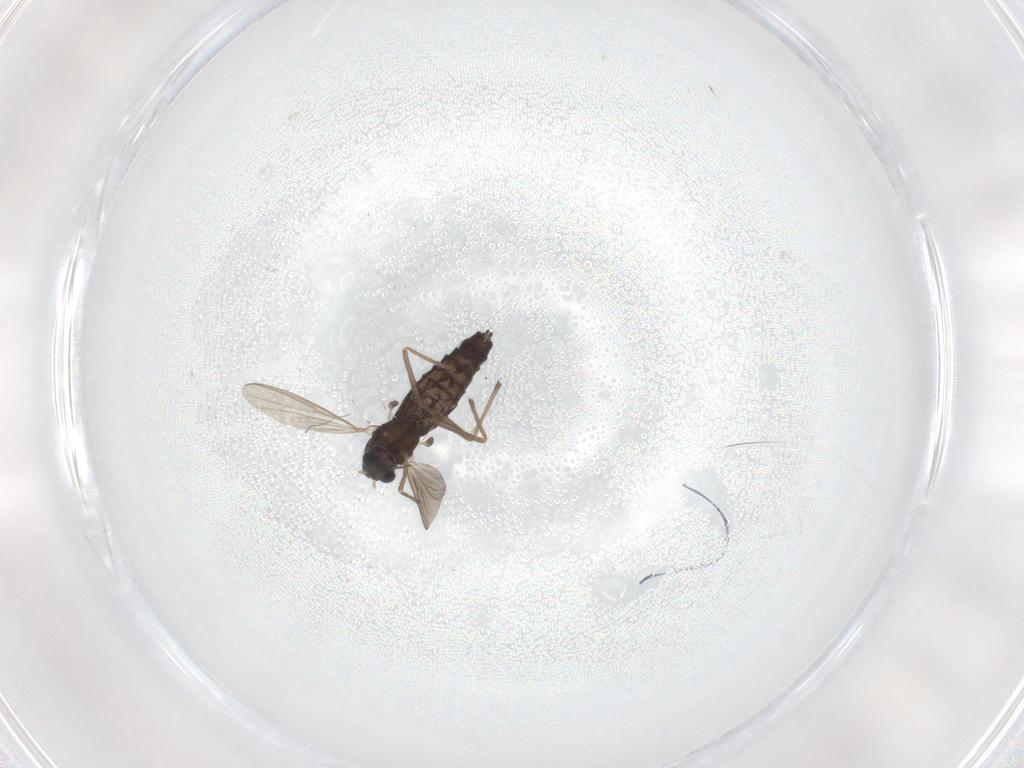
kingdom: Animalia
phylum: Arthropoda
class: Insecta
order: Diptera
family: Chironomidae
